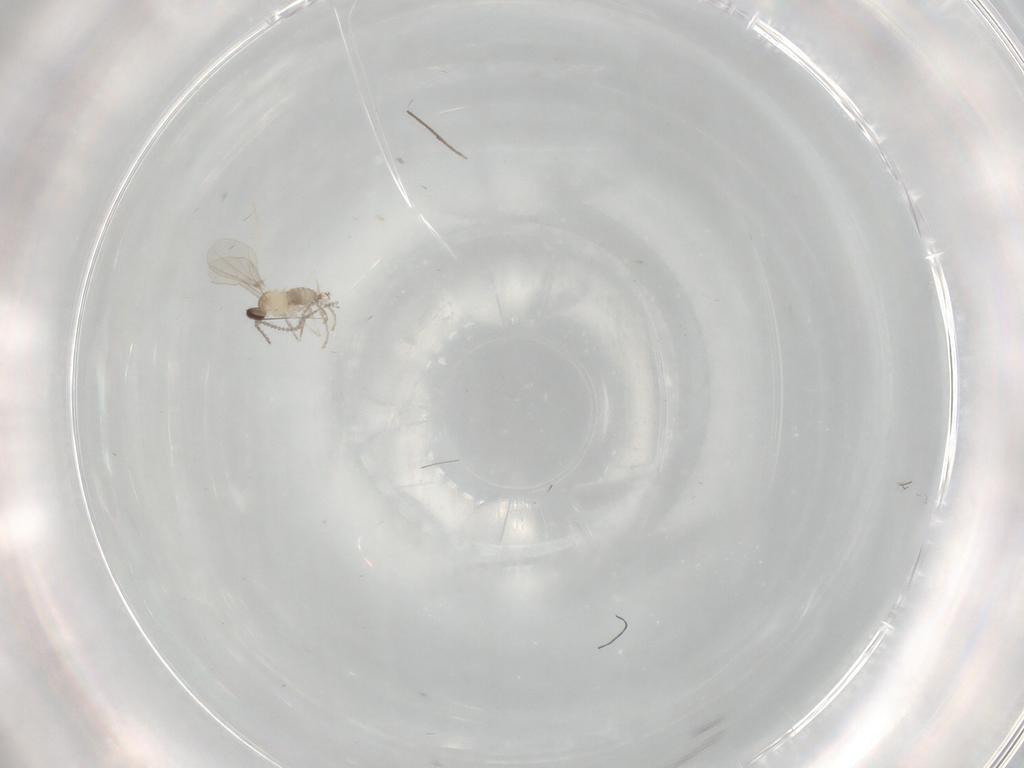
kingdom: Animalia
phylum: Arthropoda
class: Insecta
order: Diptera
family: Cecidomyiidae
